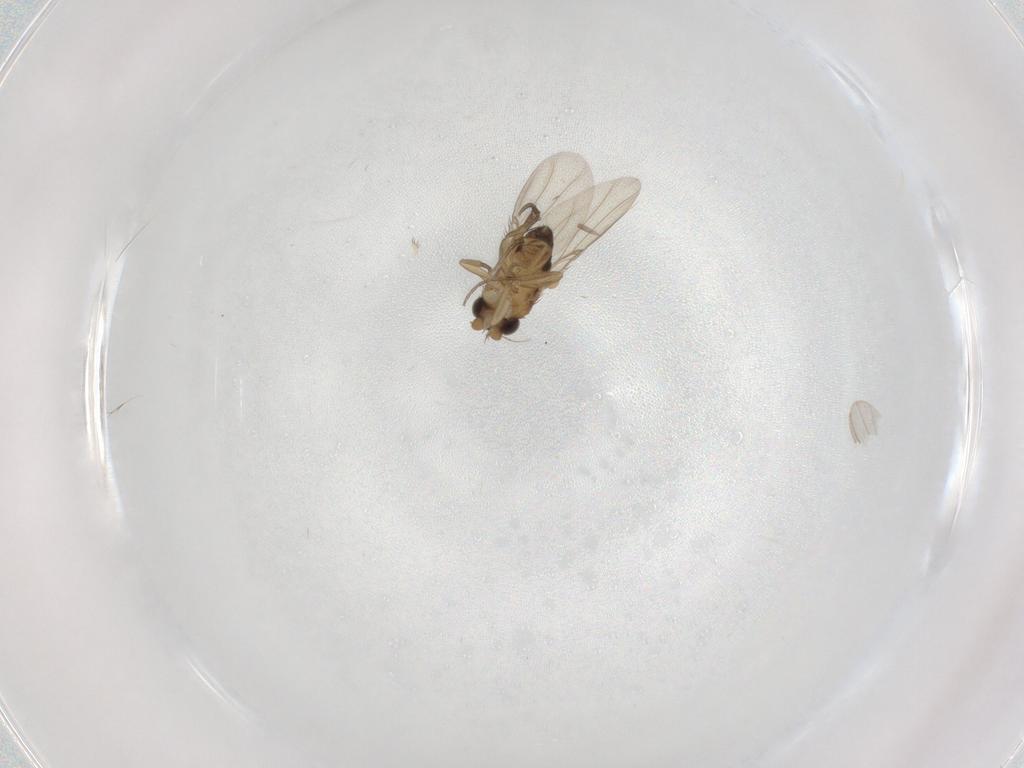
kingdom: Animalia
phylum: Arthropoda
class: Insecta
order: Diptera
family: Phoridae
